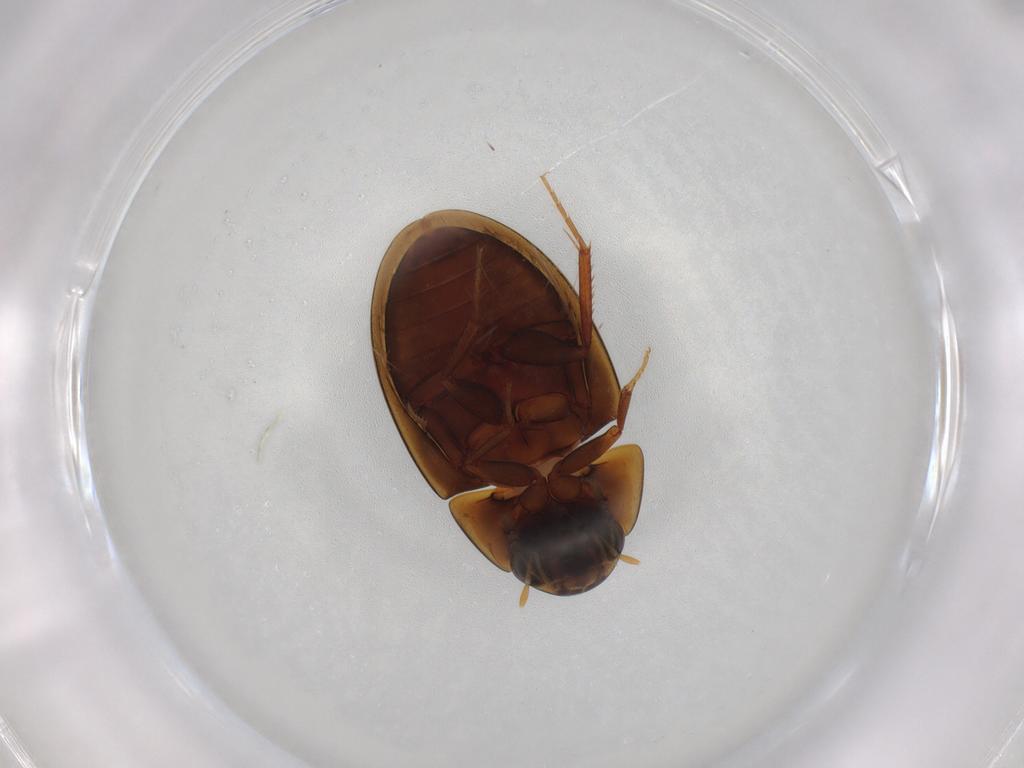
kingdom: Animalia
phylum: Arthropoda
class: Insecta
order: Coleoptera
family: Hydrophilidae
